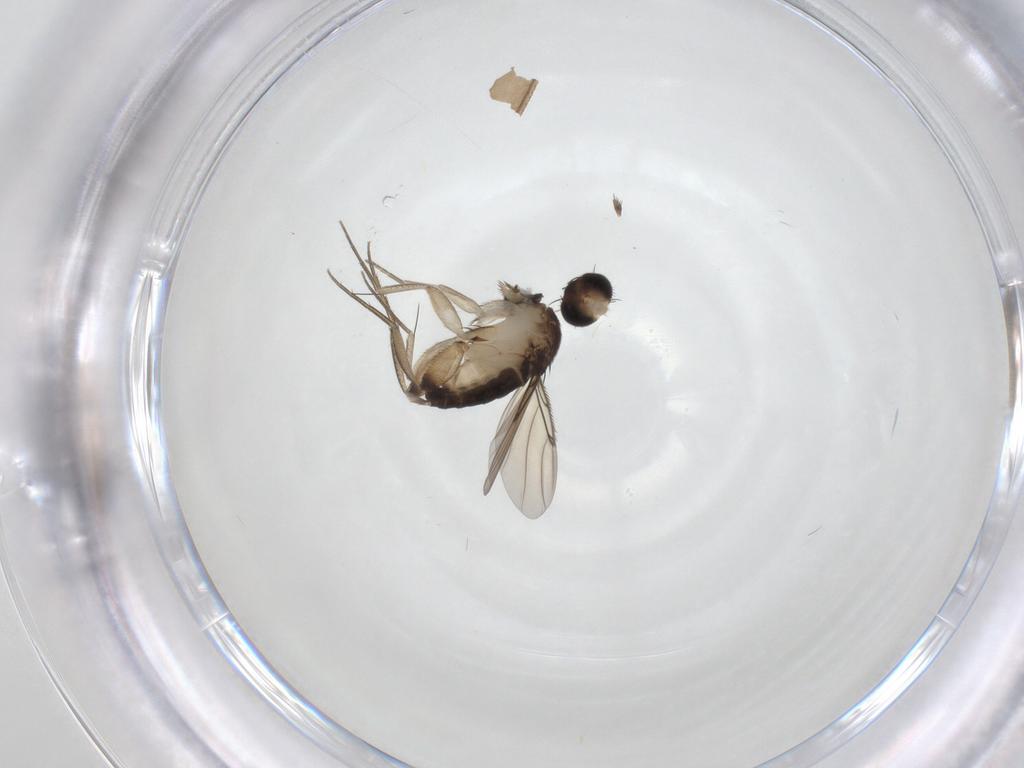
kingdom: Animalia
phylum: Arthropoda
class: Insecta
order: Diptera
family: Phoridae
